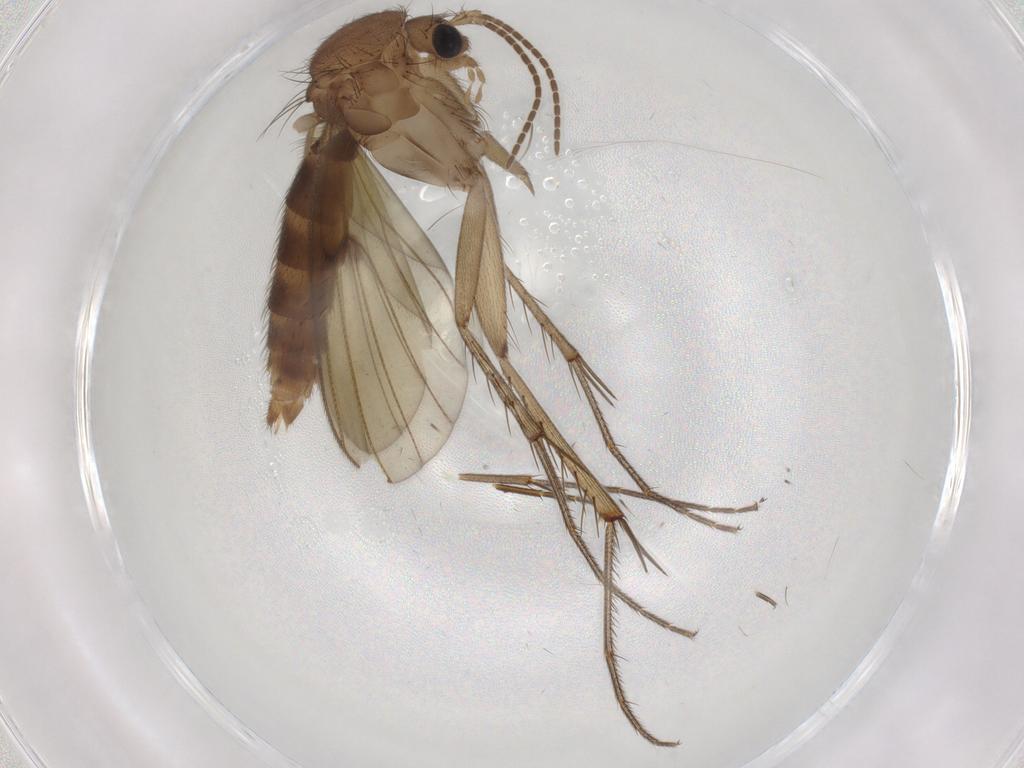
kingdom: Animalia
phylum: Arthropoda
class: Insecta
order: Diptera
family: Mycetophilidae
